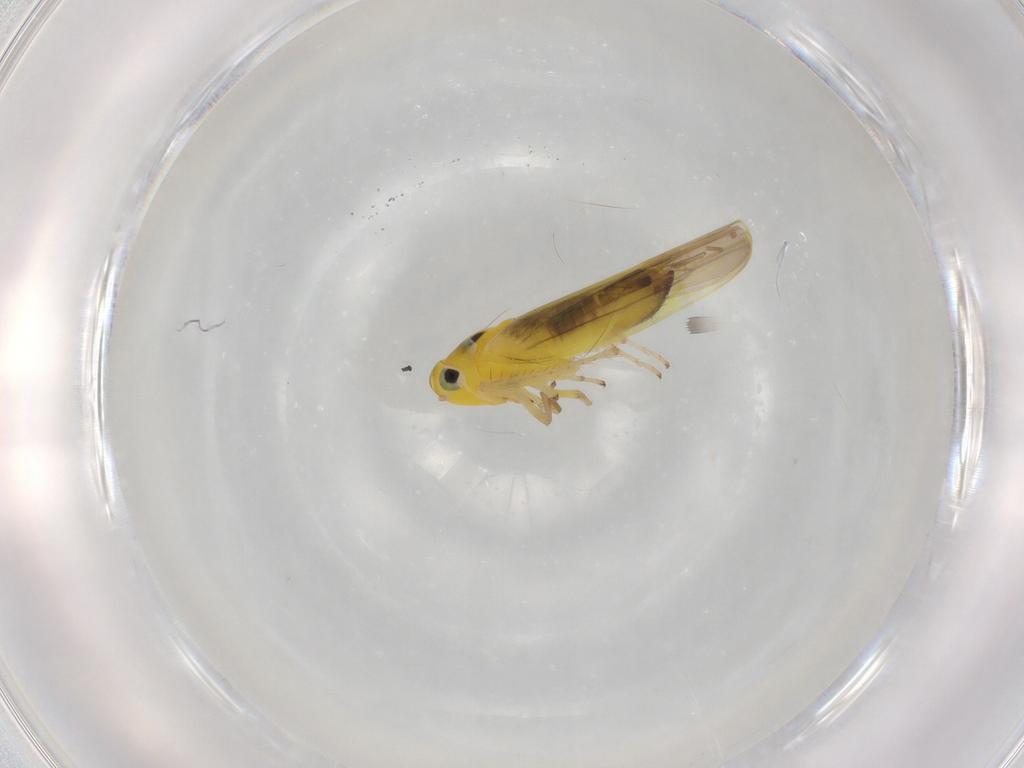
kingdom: Animalia
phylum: Arthropoda
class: Insecta
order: Hemiptera
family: Cicadellidae
